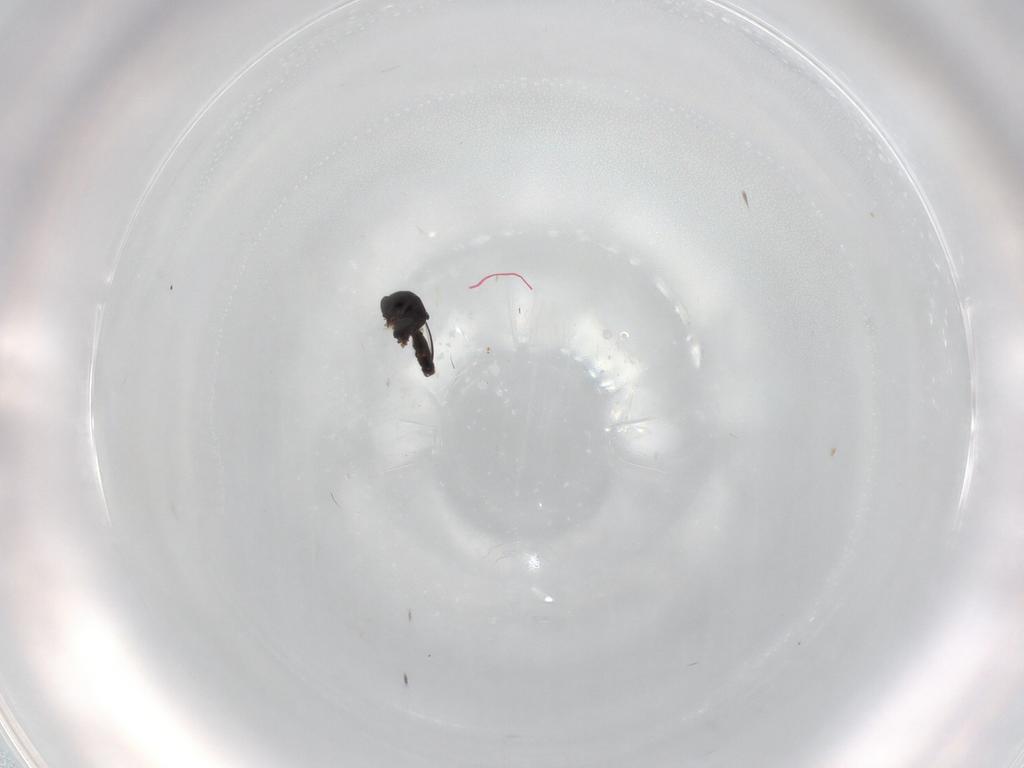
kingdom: Animalia
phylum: Arthropoda
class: Insecta
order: Diptera
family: Ceratopogonidae
